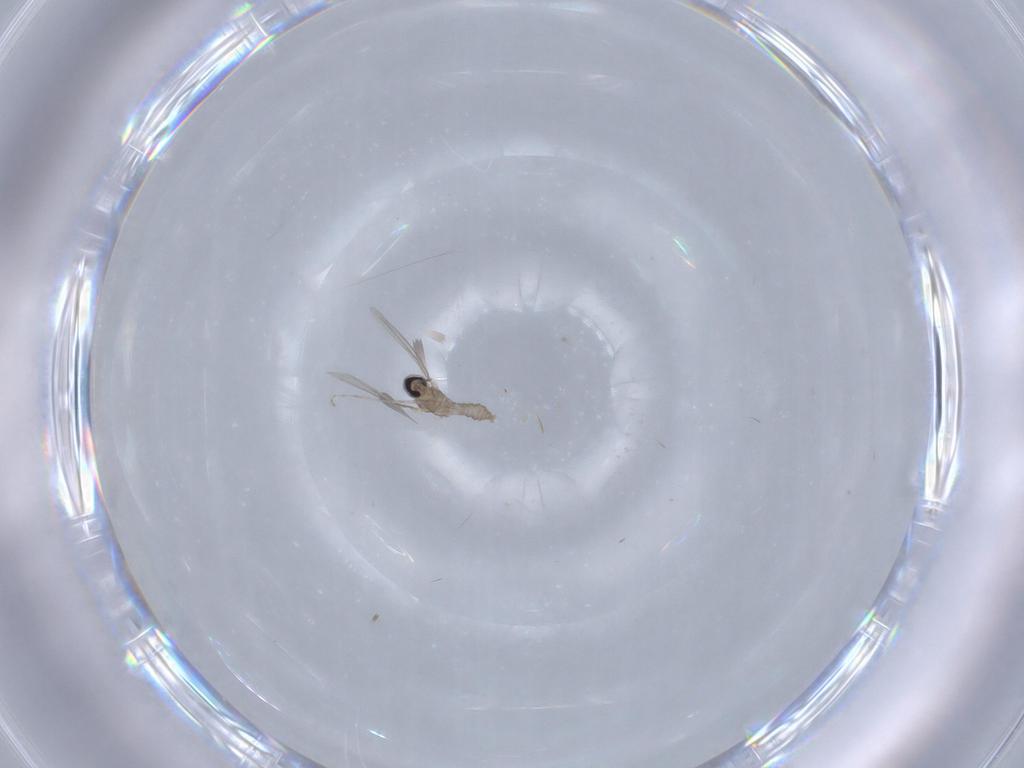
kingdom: Animalia
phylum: Arthropoda
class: Insecta
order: Diptera
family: Cecidomyiidae
